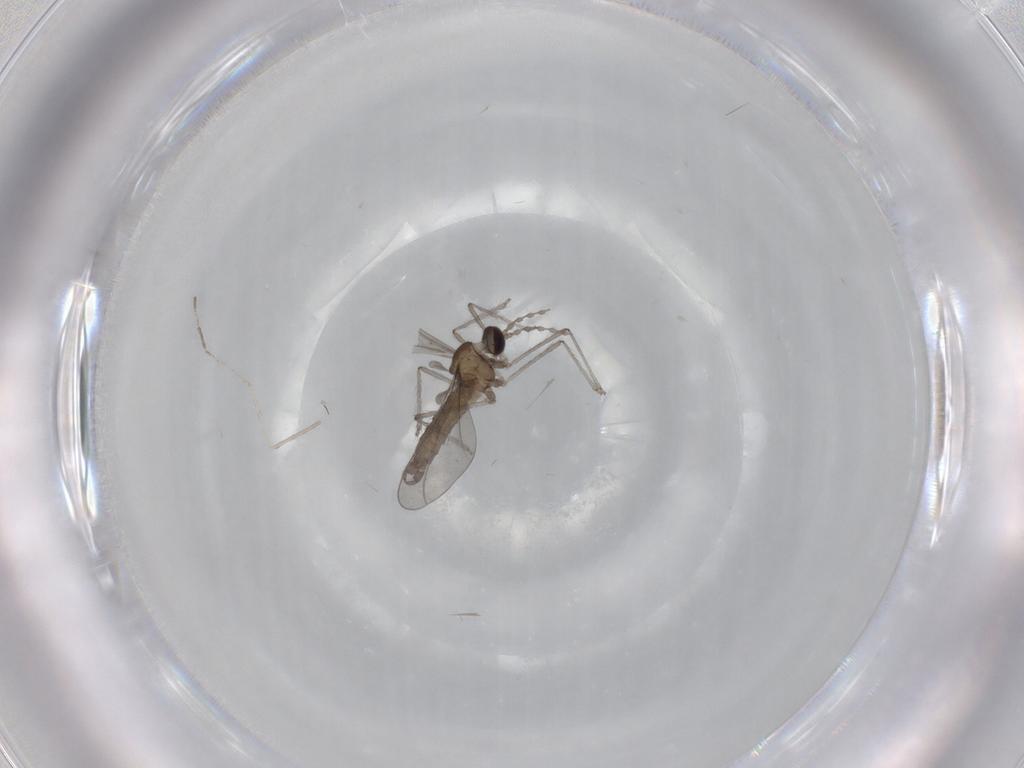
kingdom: Animalia
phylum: Arthropoda
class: Insecta
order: Diptera
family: Cecidomyiidae
